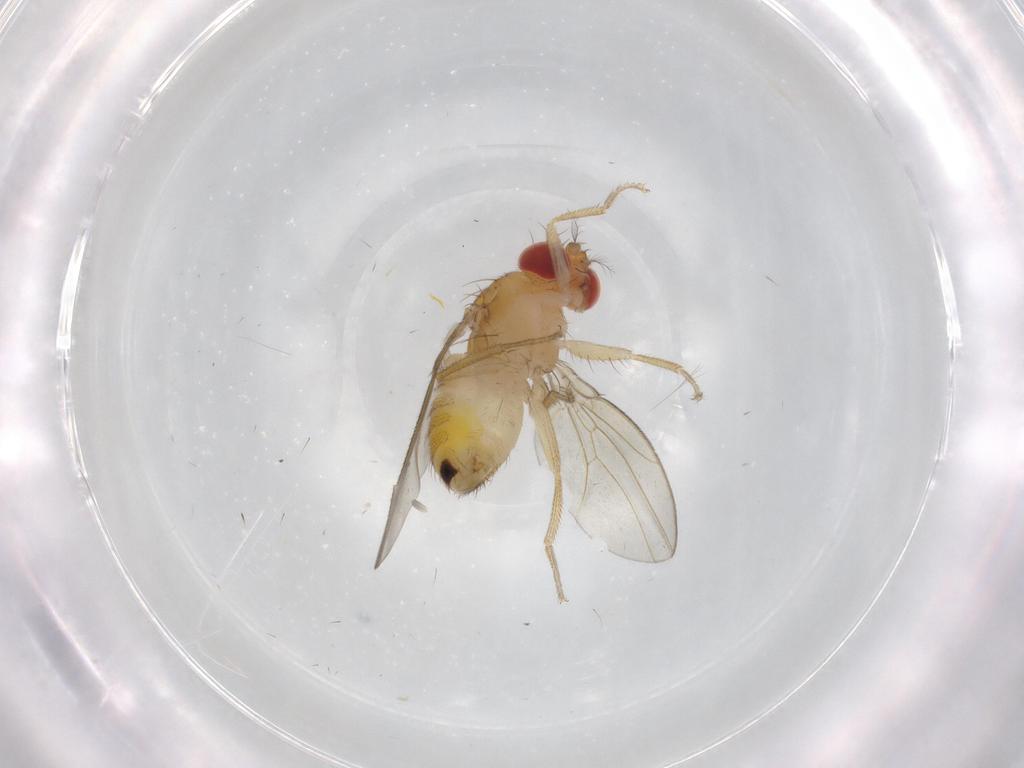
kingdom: Animalia
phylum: Arthropoda
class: Insecta
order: Diptera
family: Drosophilidae
